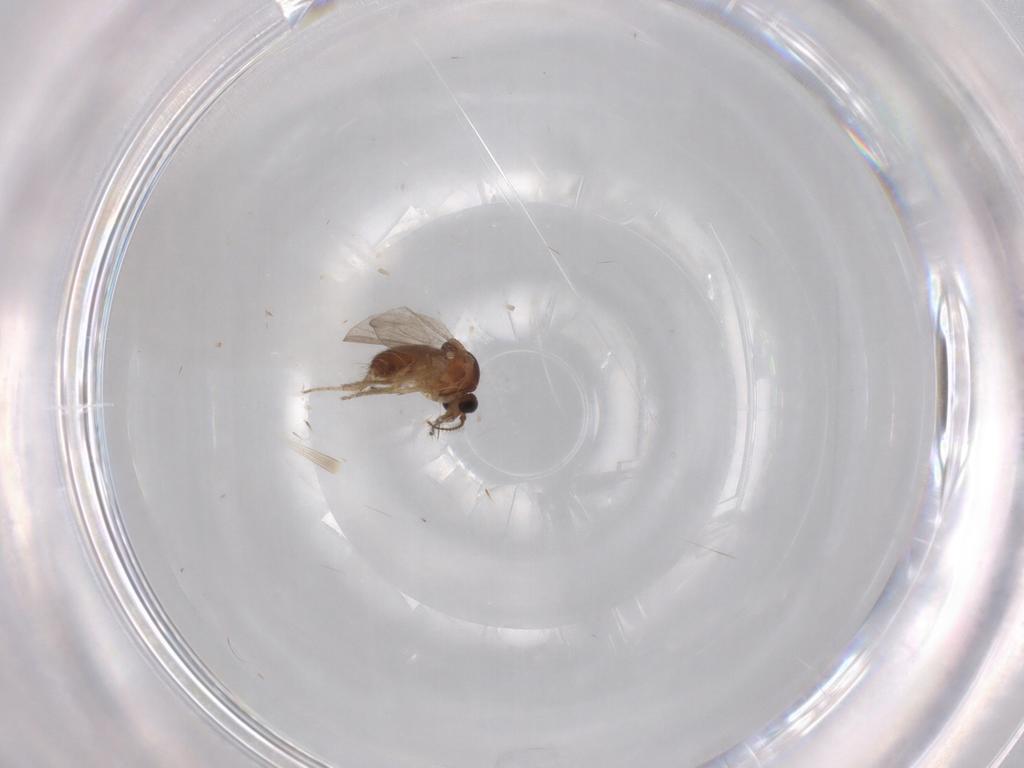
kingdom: Animalia
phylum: Arthropoda
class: Insecta
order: Diptera
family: Ceratopogonidae
